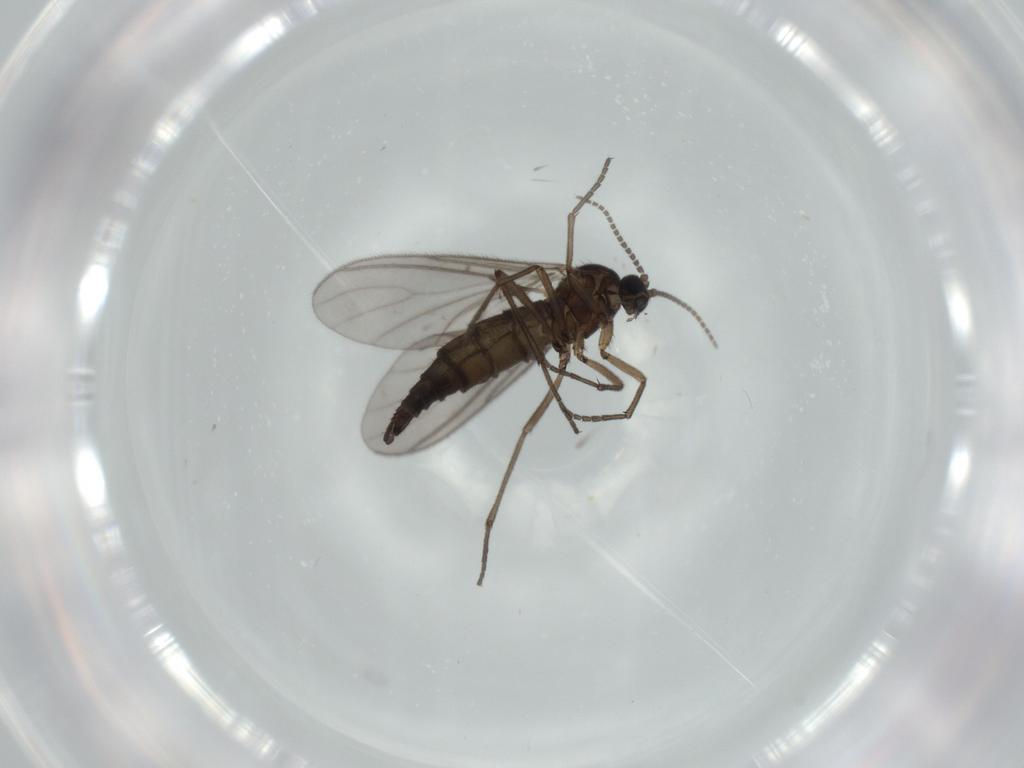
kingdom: Animalia
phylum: Arthropoda
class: Insecta
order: Diptera
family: Sciaridae
